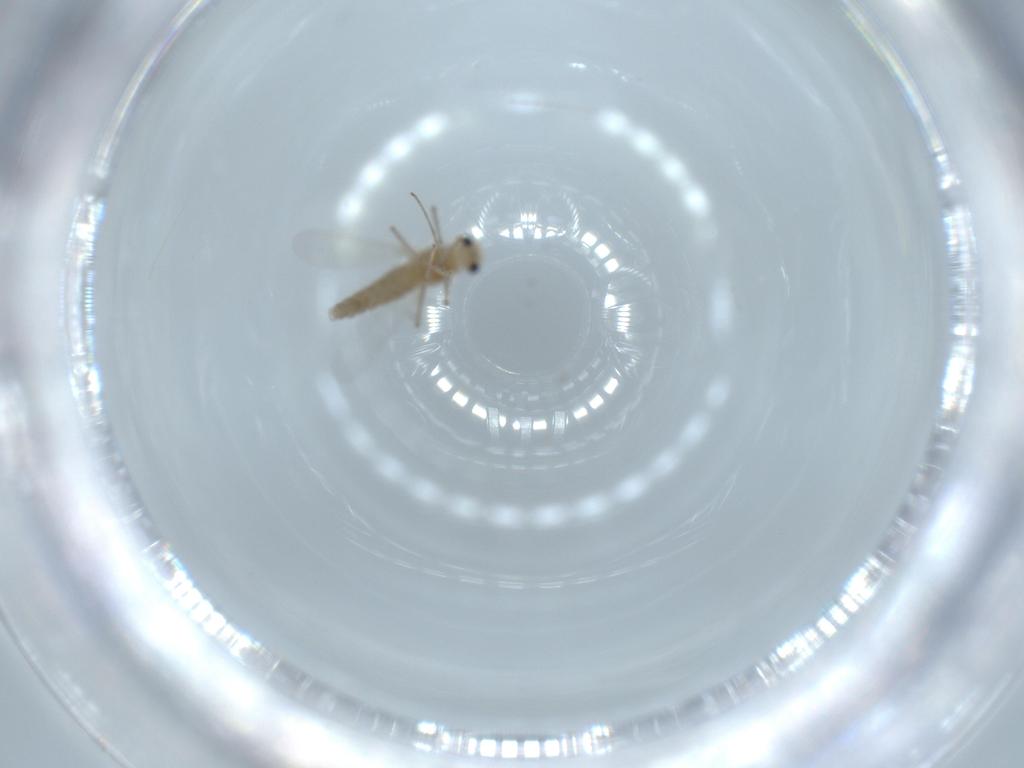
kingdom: Animalia
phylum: Arthropoda
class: Insecta
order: Diptera
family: Chironomidae
